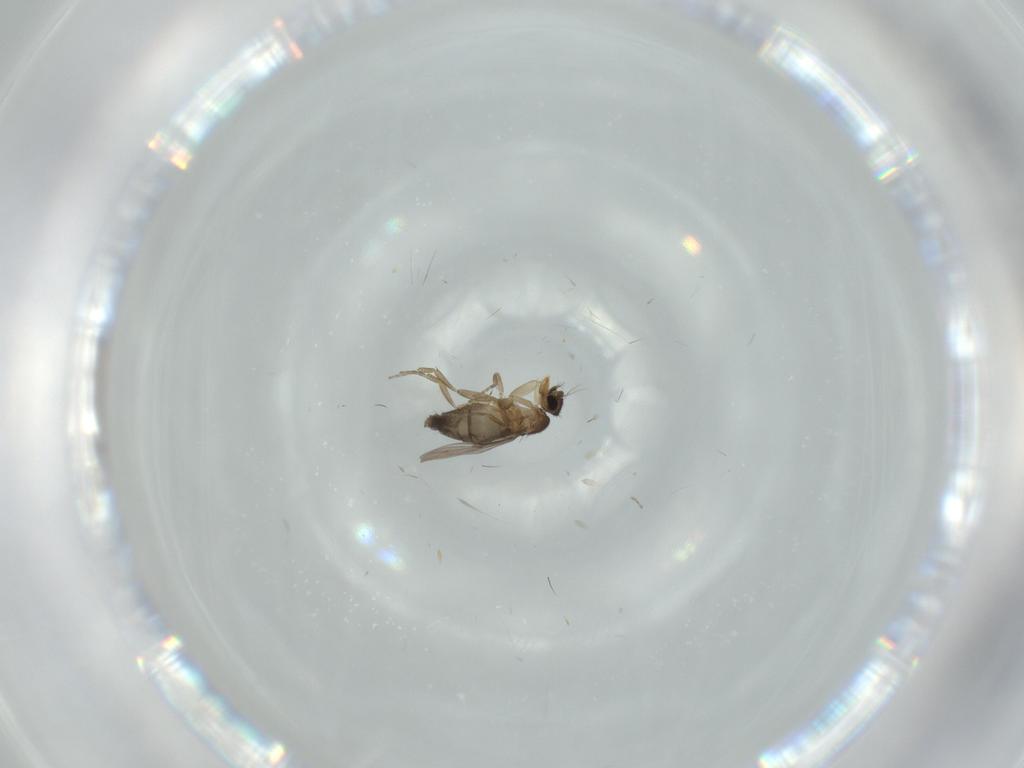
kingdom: Animalia
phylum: Arthropoda
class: Insecta
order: Diptera
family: Phoridae
